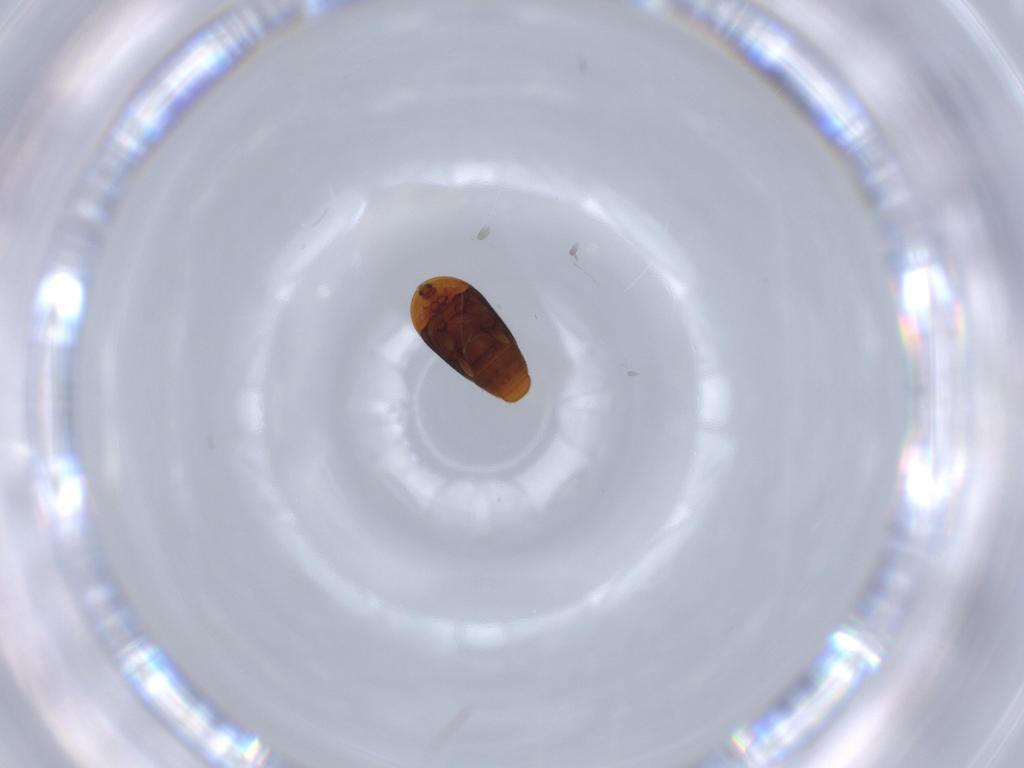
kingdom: Animalia
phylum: Arthropoda
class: Insecta
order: Coleoptera
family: Corylophidae
